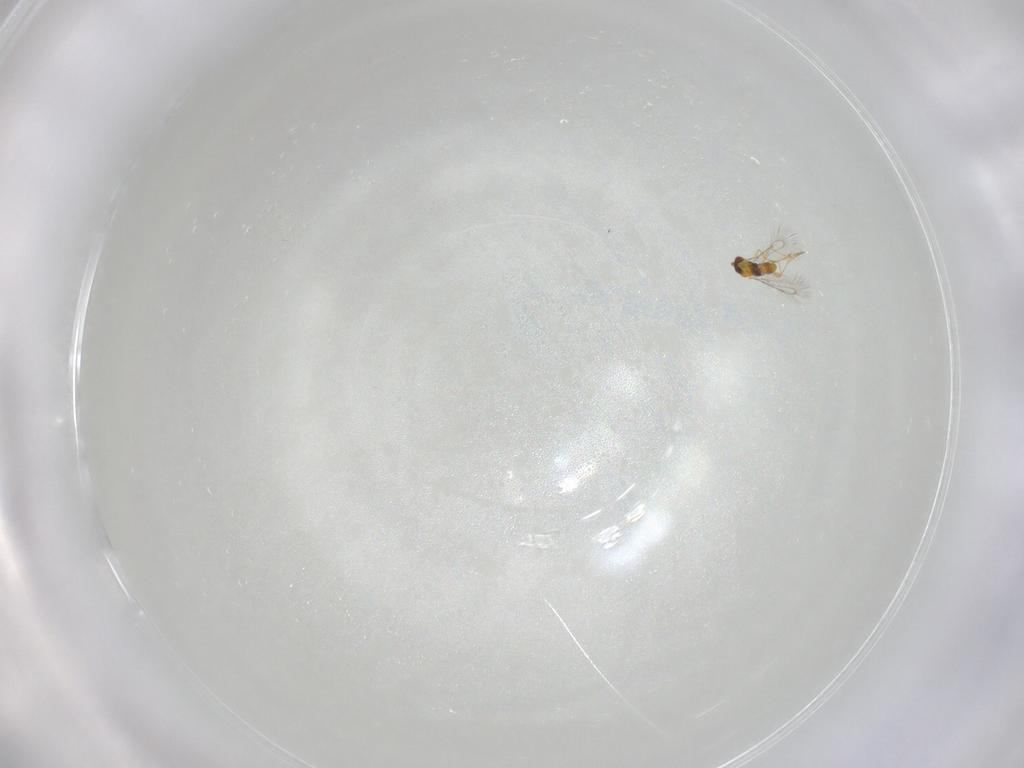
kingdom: Animalia
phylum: Arthropoda
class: Insecta
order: Hymenoptera
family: Eulophidae
